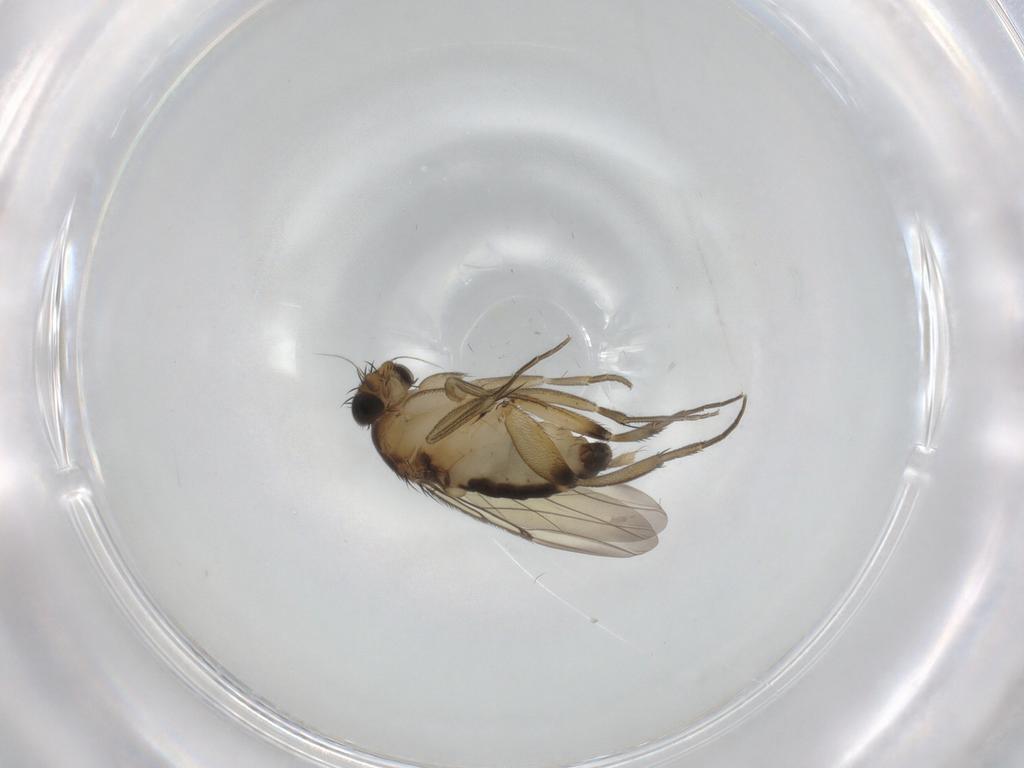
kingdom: Animalia
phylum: Arthropoda
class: Insecta
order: Diptera
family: Phoridae
